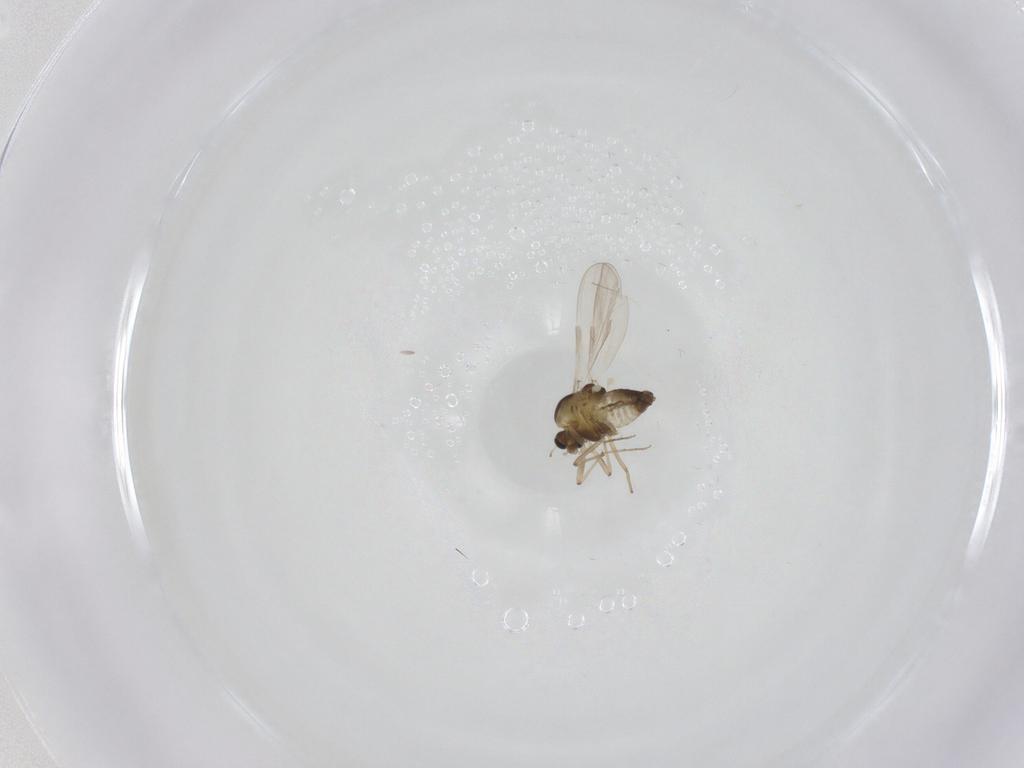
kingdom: Animalia
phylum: Arthropoda
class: Insecta
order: Diptera
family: Chironomidae
